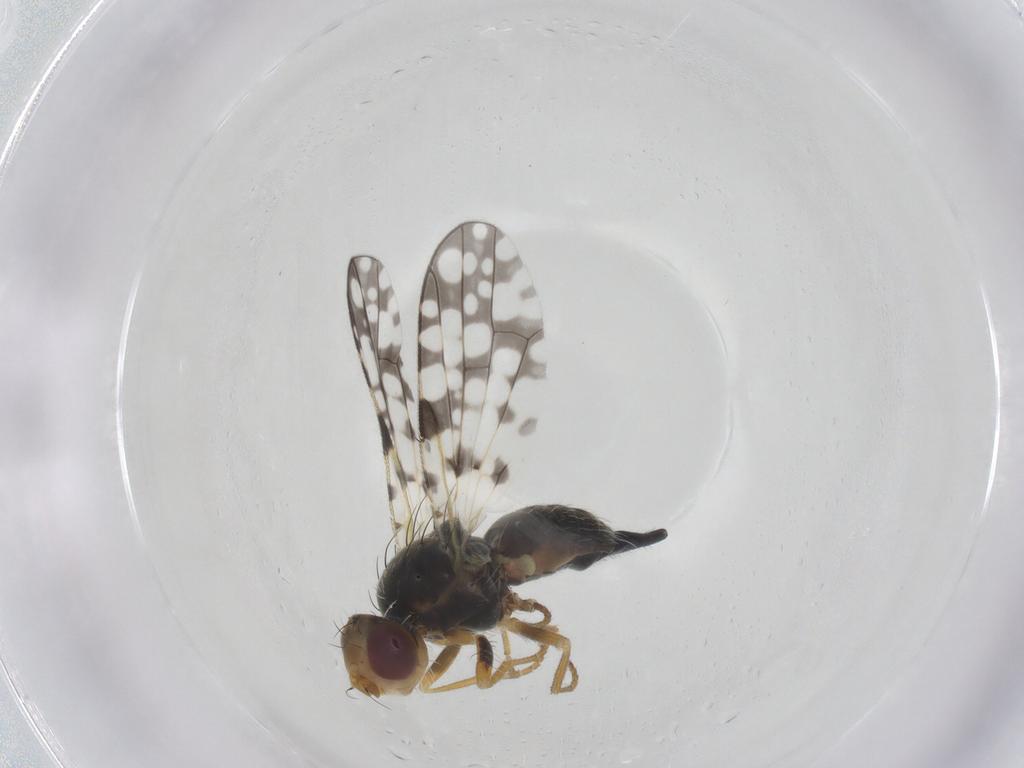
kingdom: Animalia
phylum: Arthropoda
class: Insecta
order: Diptera
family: Tephritidae
